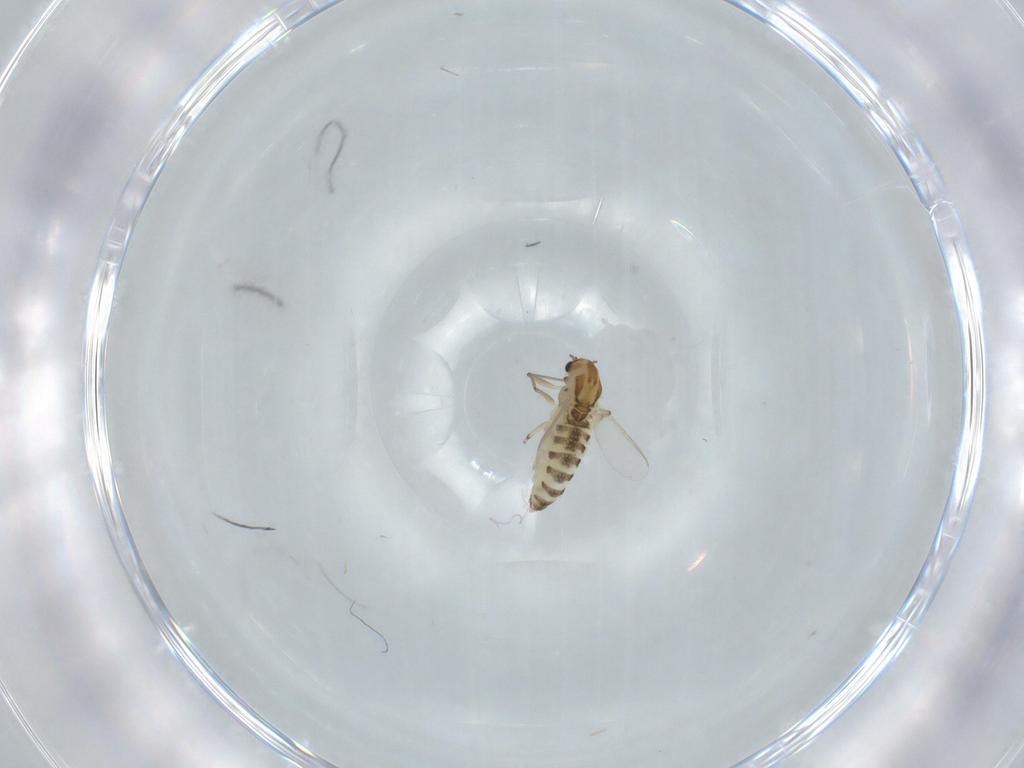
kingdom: Animalia
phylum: Arthropoda
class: Insecta
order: Diptera
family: Chironomidae
